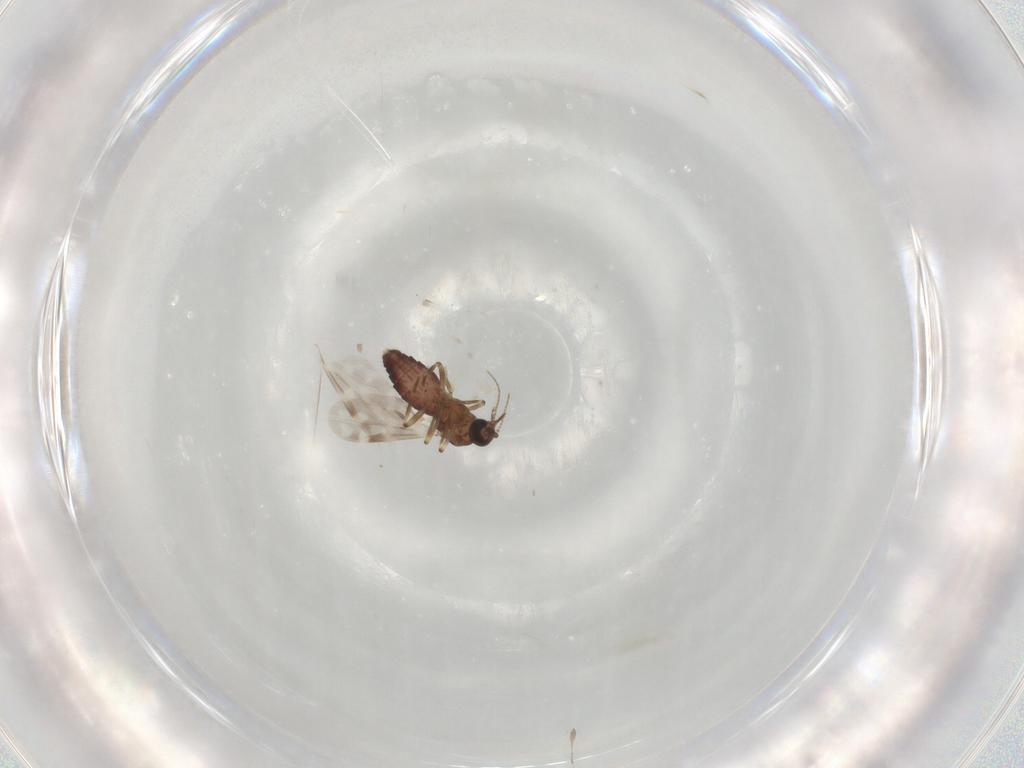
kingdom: Animalia
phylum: Arthropoda
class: Insecta
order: Diptera
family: Ceratopogonidae
